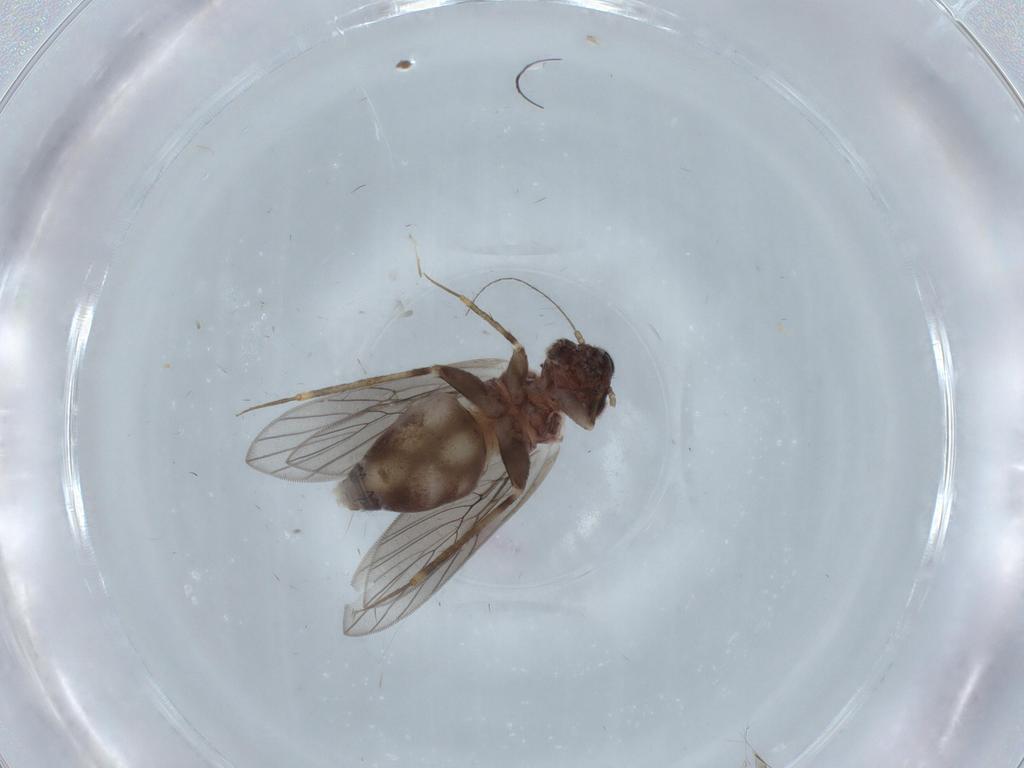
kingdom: Animalia
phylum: Arthropoda
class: Insecta
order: Psocodea
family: Lepidopsocidae
